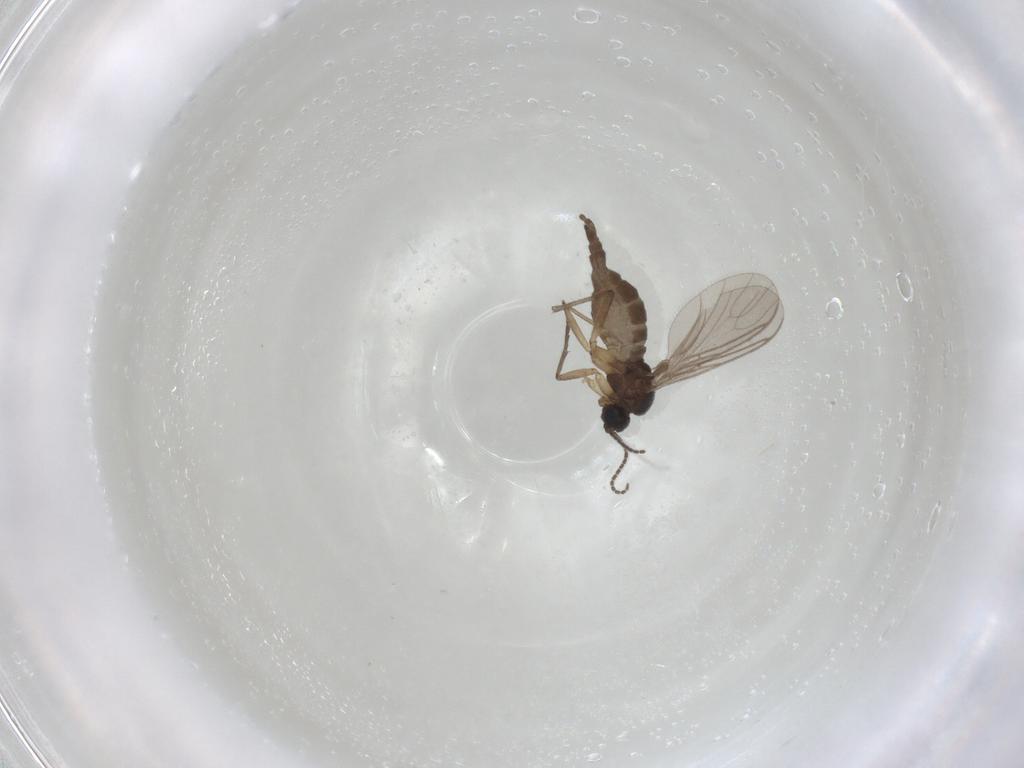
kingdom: Animalia
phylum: Arthropoda
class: Insecta
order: Diptera
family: Sciaridae
